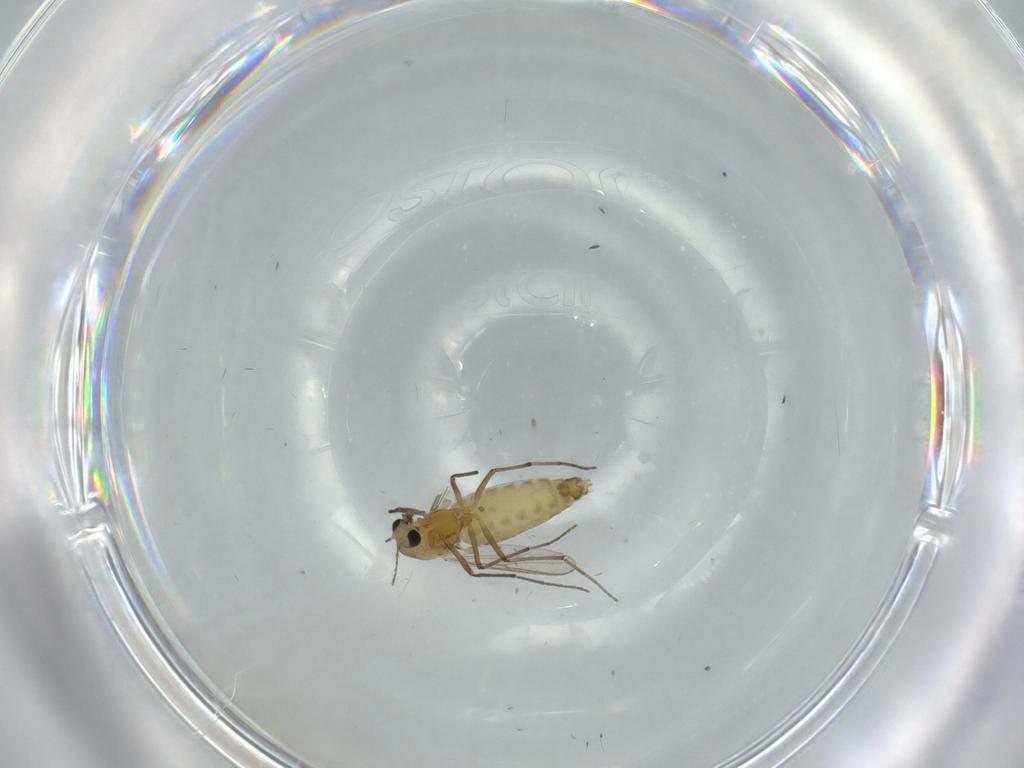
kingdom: Animalia
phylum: Arthropoda
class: Insecta
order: Diptera
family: Chironomidae
